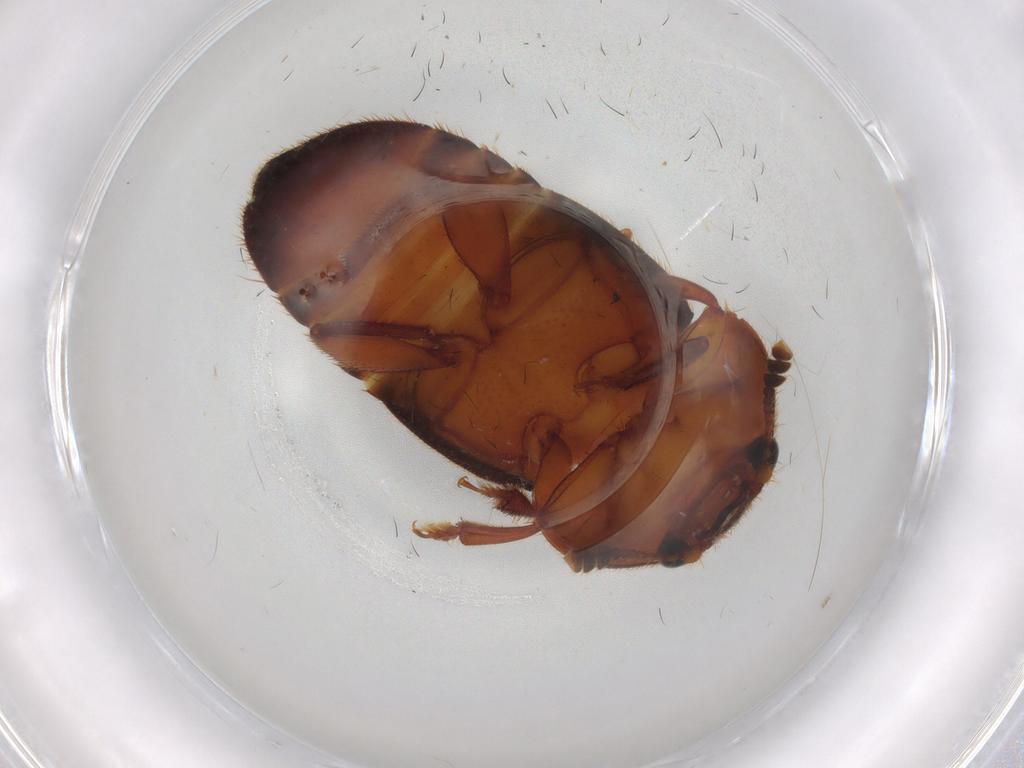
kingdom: Animalia
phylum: Arthropoda
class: Insecta
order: Coleoptera
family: Nitidulidae
